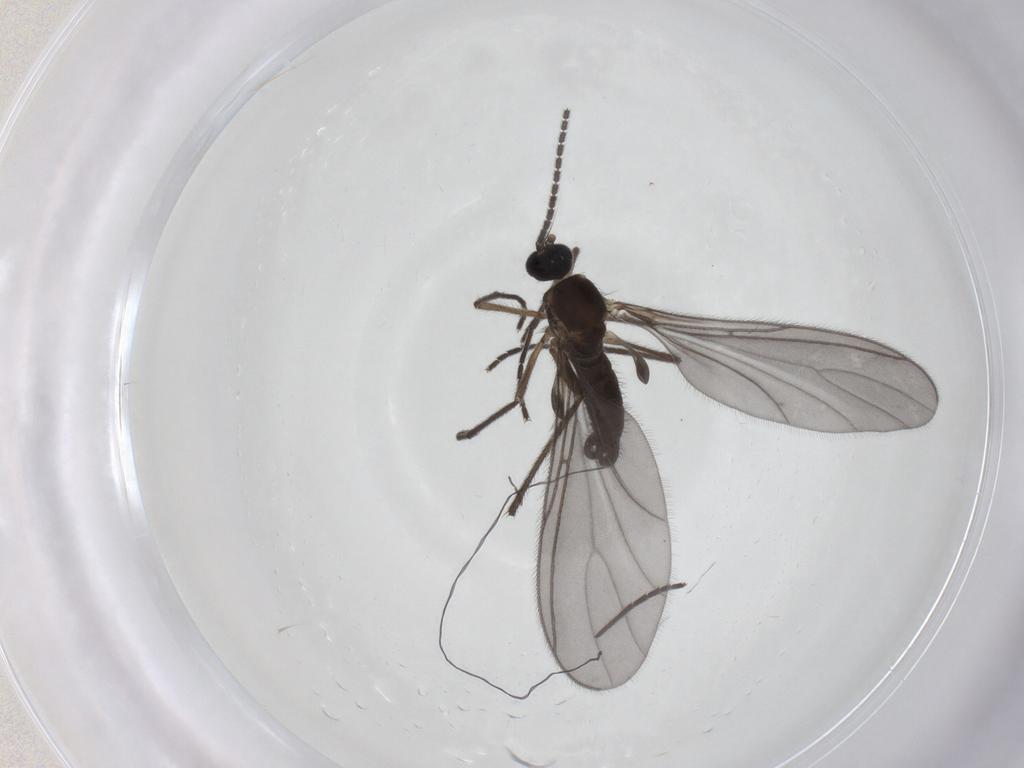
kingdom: Animalia
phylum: Arthropoda
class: Insecta
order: Diptera
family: Sciaridae
